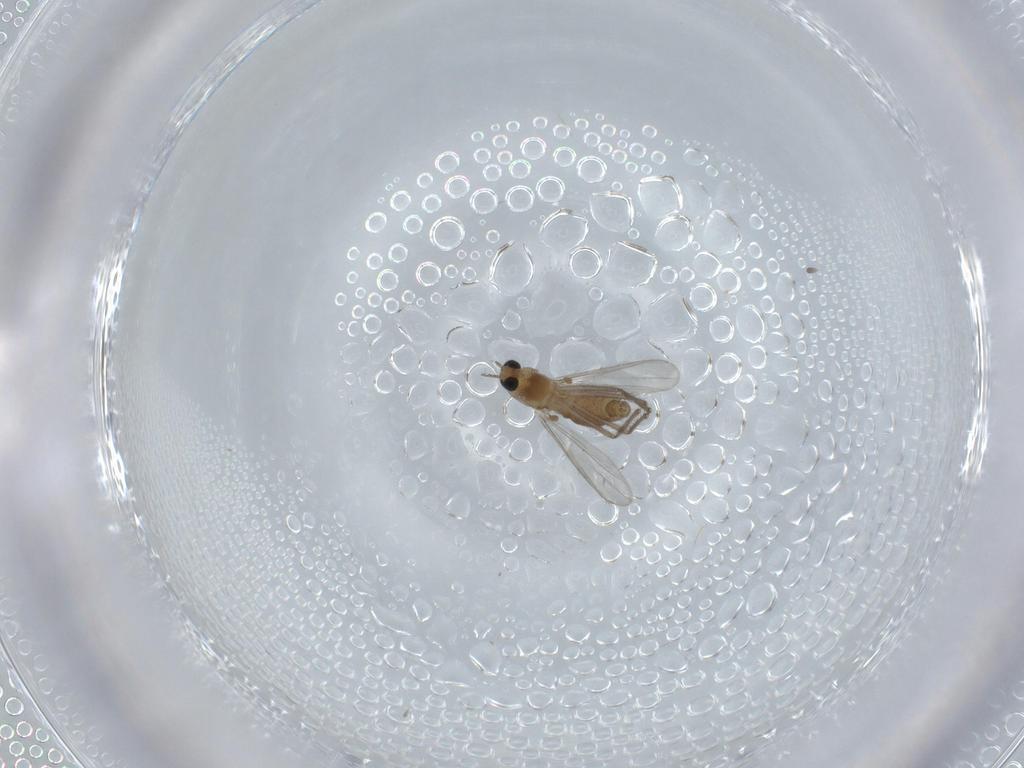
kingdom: Animalia
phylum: Arthropoda
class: Insecta
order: Diptera
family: Chironomidae
